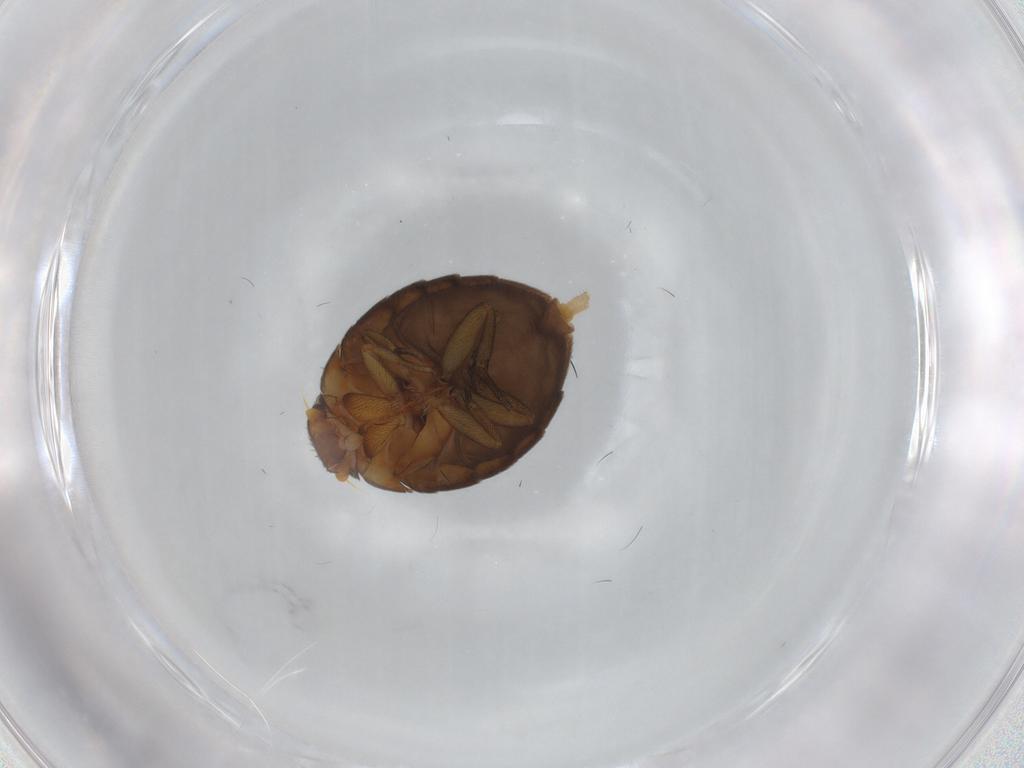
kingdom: Animalia
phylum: Arthropoda
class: Insecta
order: Diptera
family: Phoridae
